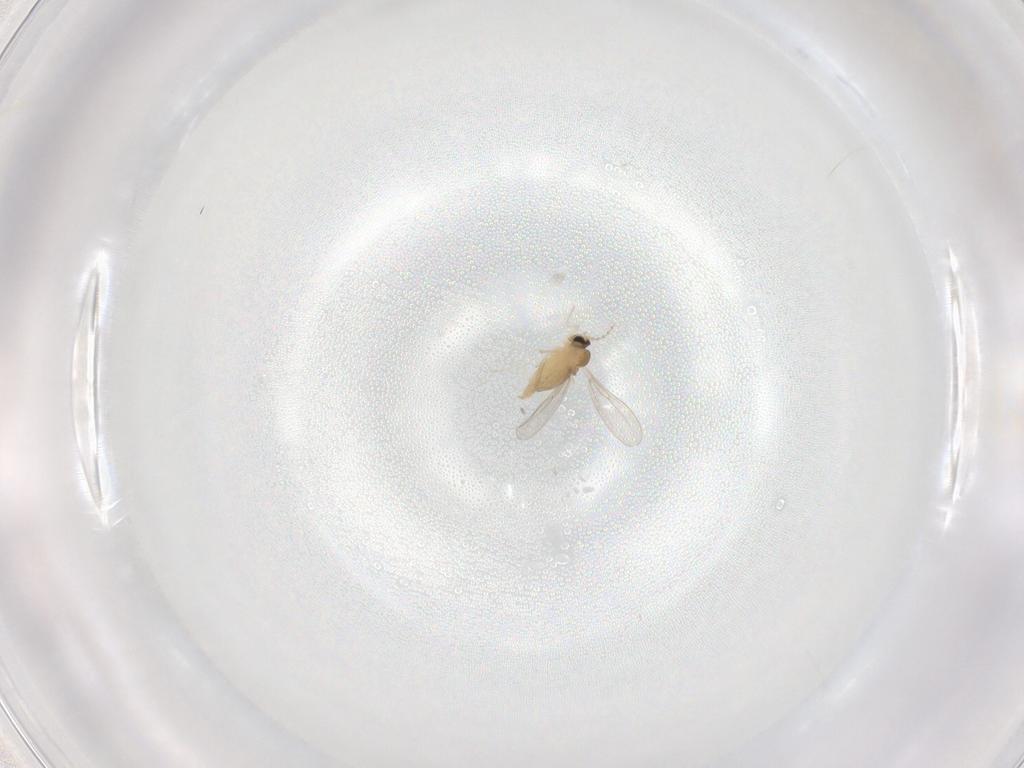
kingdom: Animalia
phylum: Arthropoda
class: Insecta
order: Diptera
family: Cecidomyiidae
